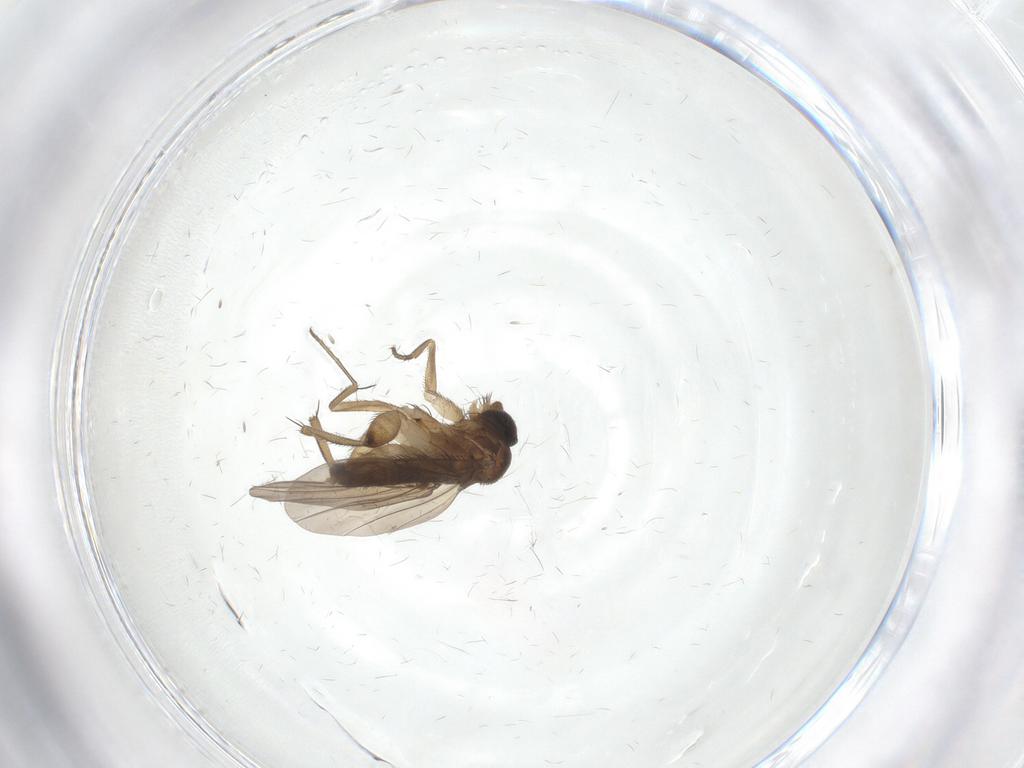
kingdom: Animalia
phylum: Arthropoda
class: Insecta
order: Diptera
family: Phoridae
